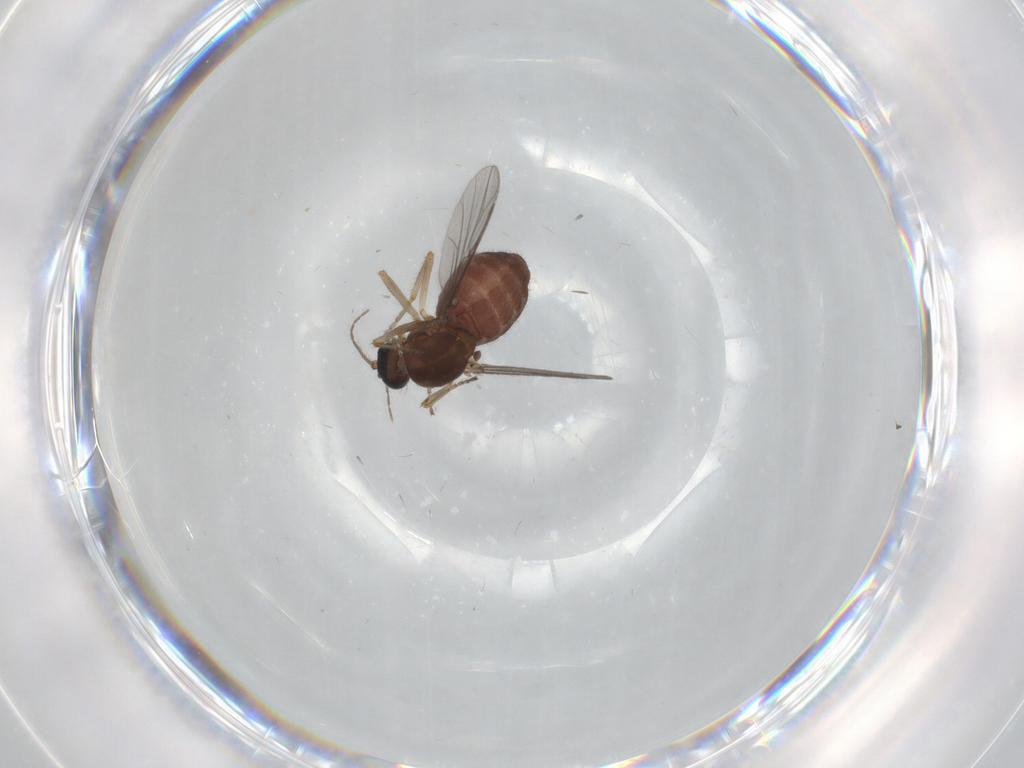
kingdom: Animalia
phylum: Arthropoda
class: Insecta
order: Diptera
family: Ceratopogonidae
